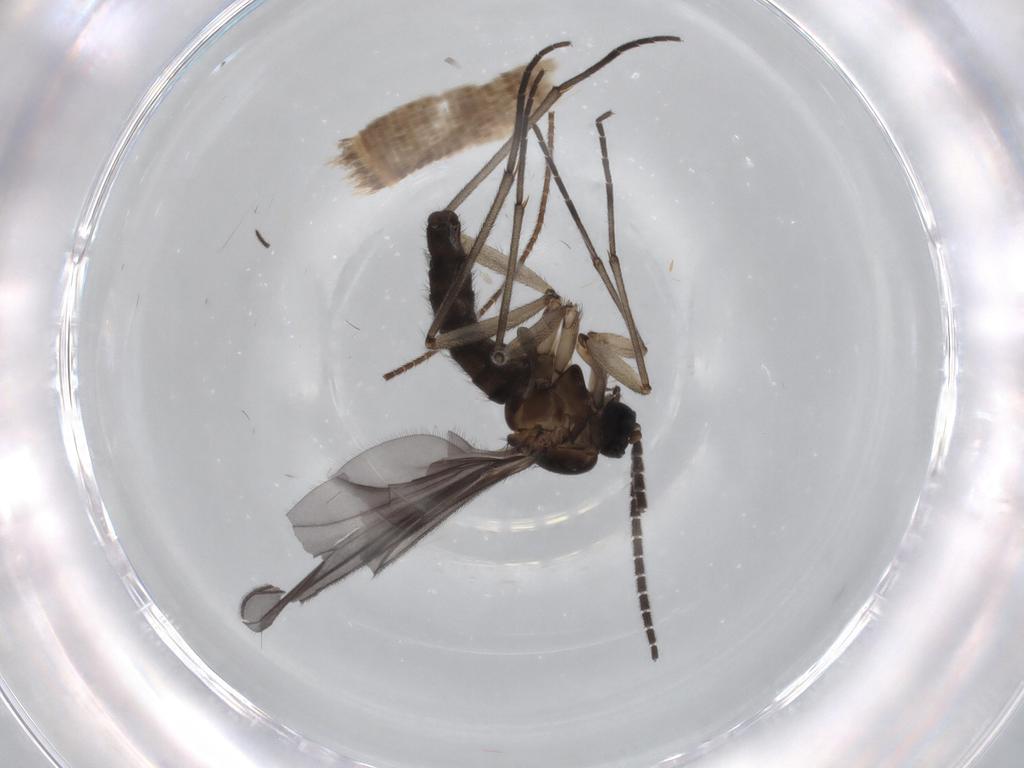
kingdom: Animalia
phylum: Arthropoda
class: Insecta
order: Diptera
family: Sciaridae
